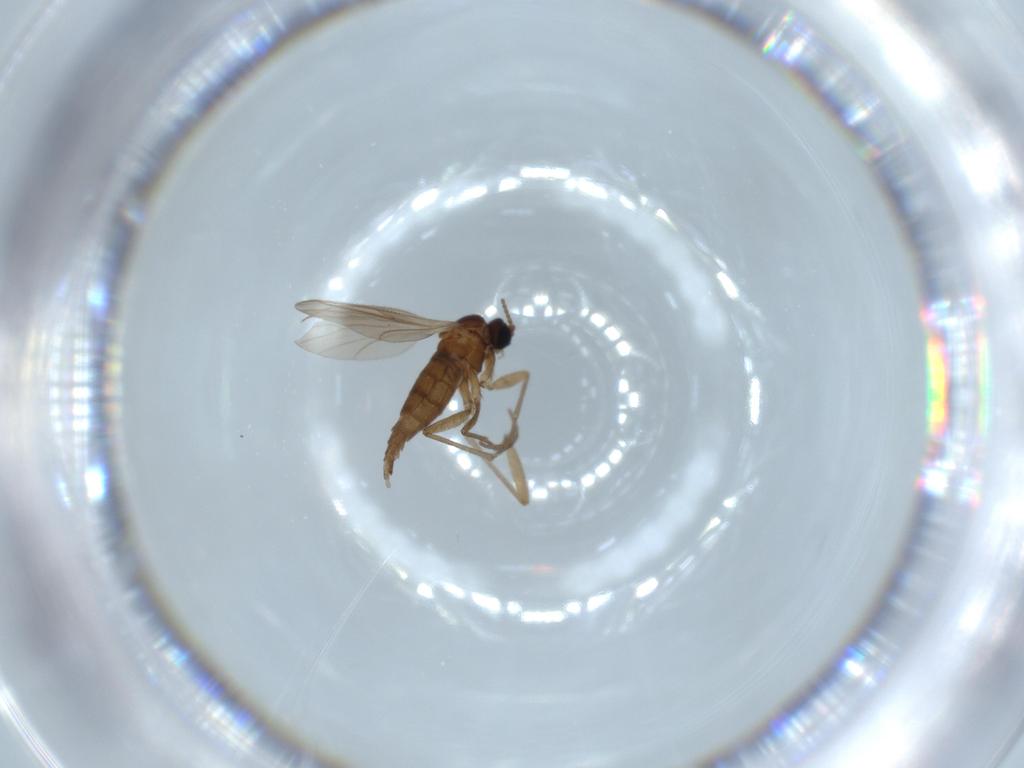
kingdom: Animalia
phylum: Arthropoda
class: Insecta
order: Diptera
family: Sciaridae
